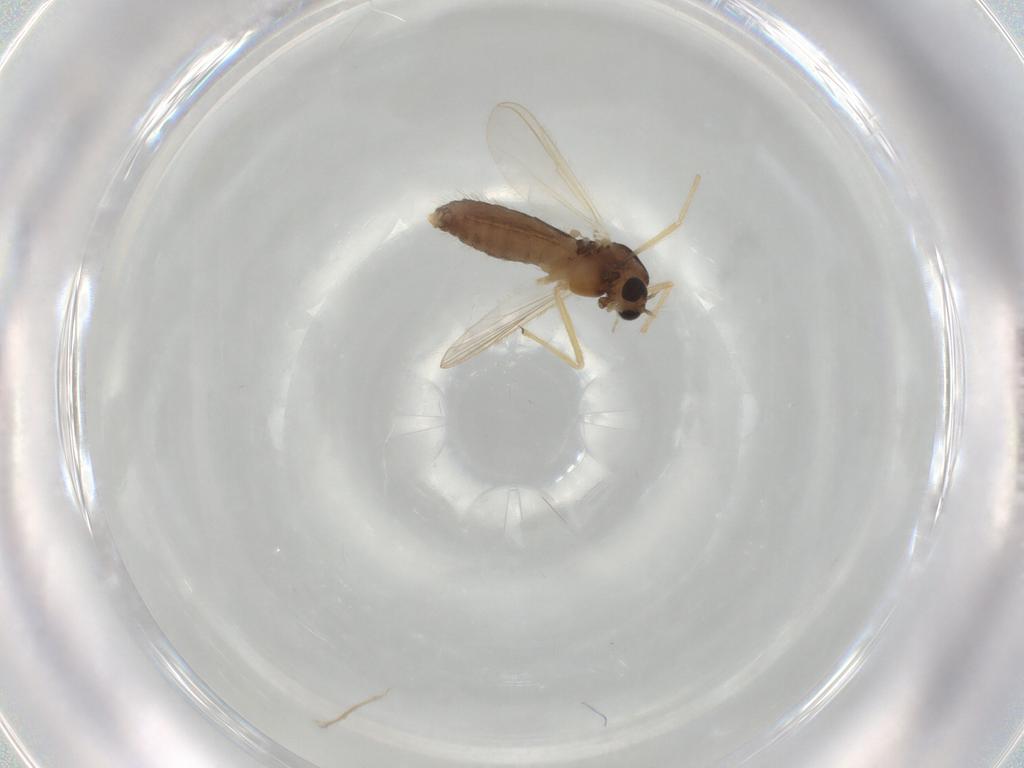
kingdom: Animalia
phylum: Arthropoda
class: Insecta
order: Diptera
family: Chironomidae
